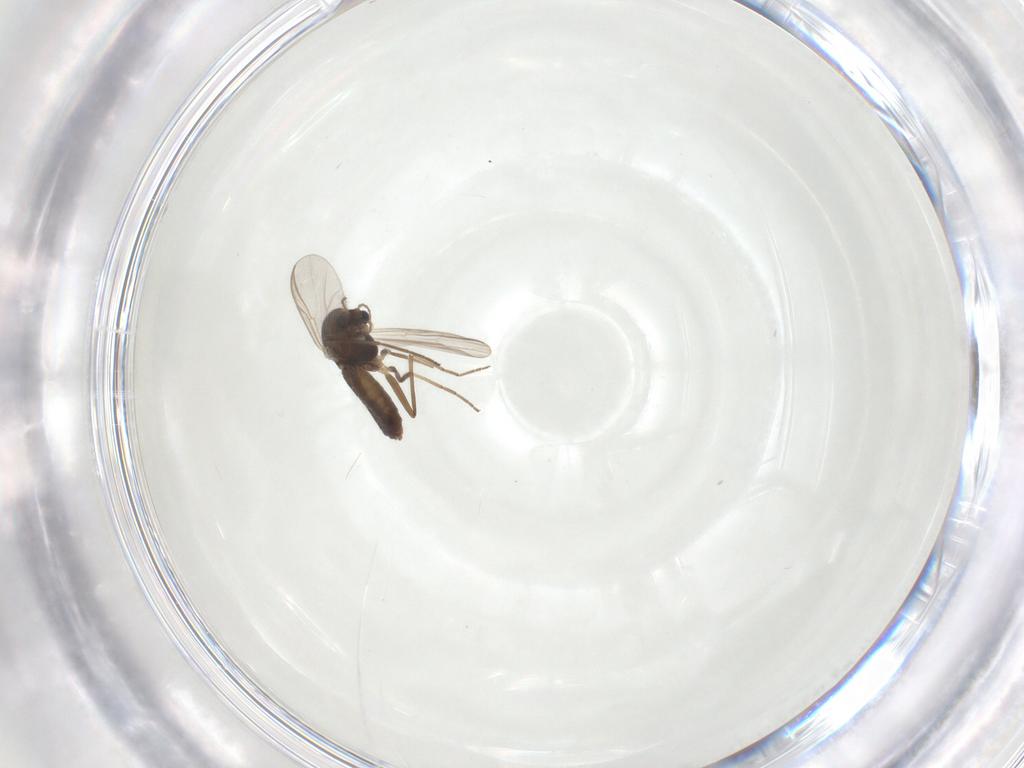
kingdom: Animalia
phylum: Arthropoda
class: Insecta
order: Diptera
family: Chironomidae
